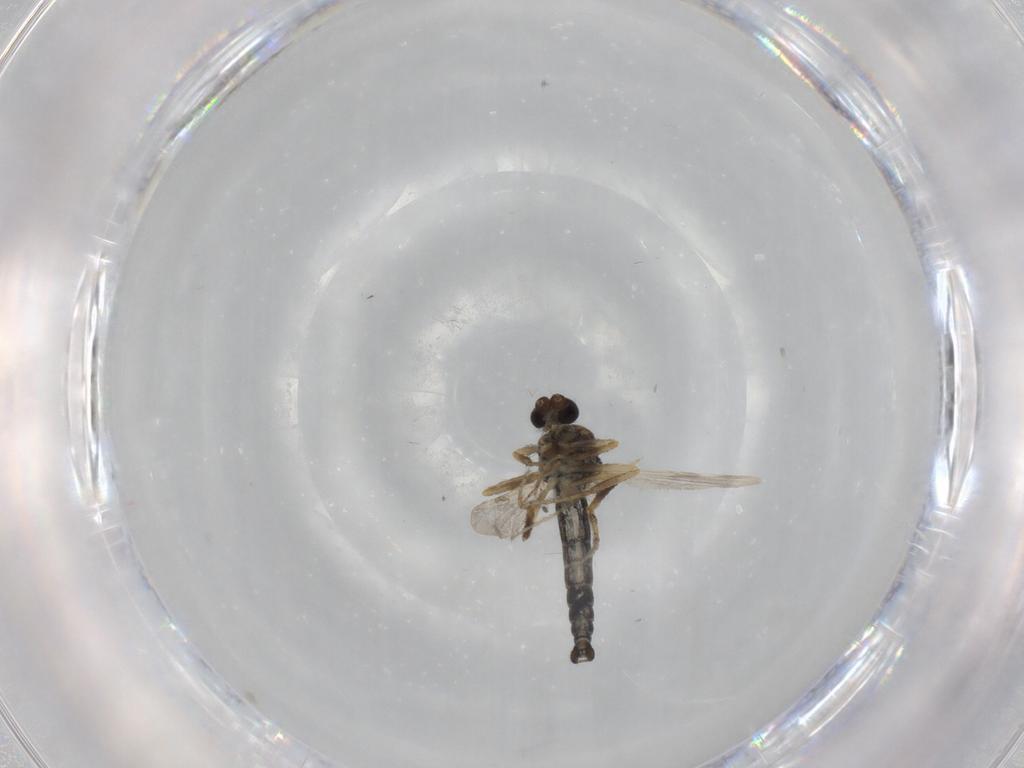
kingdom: Animalia
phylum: Arthropoda
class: Insecta
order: Diptera
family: Ceratopogonidae
